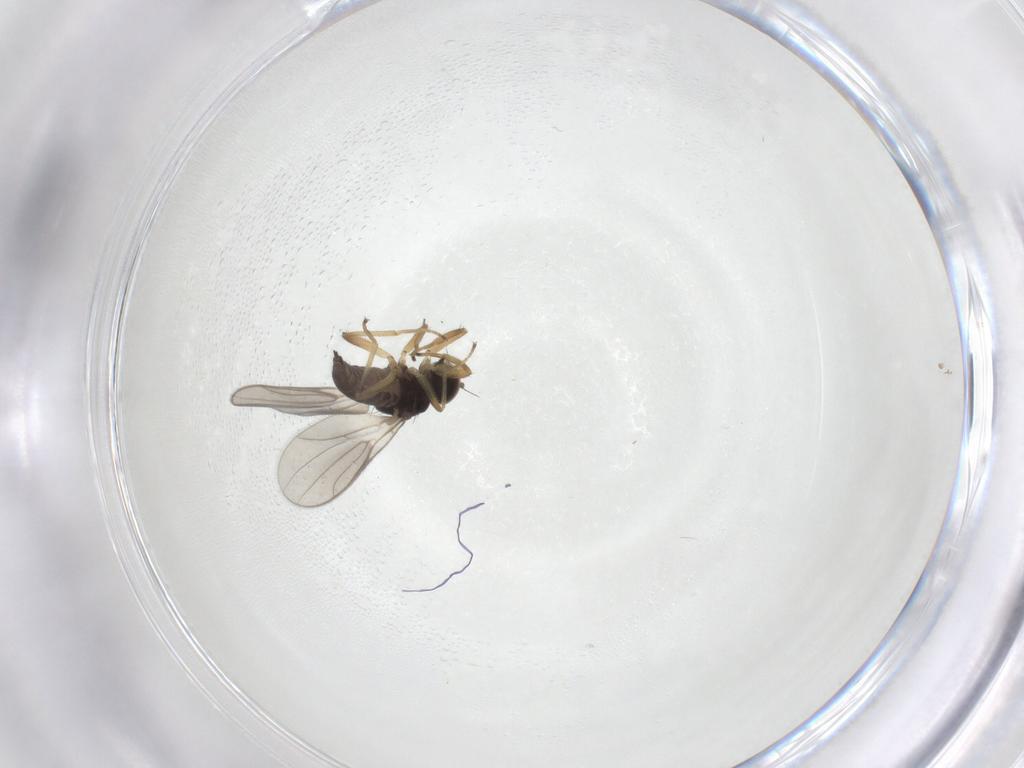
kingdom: Animalia
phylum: Arthropoda
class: Insecta
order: Diptera
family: Hybotidae
